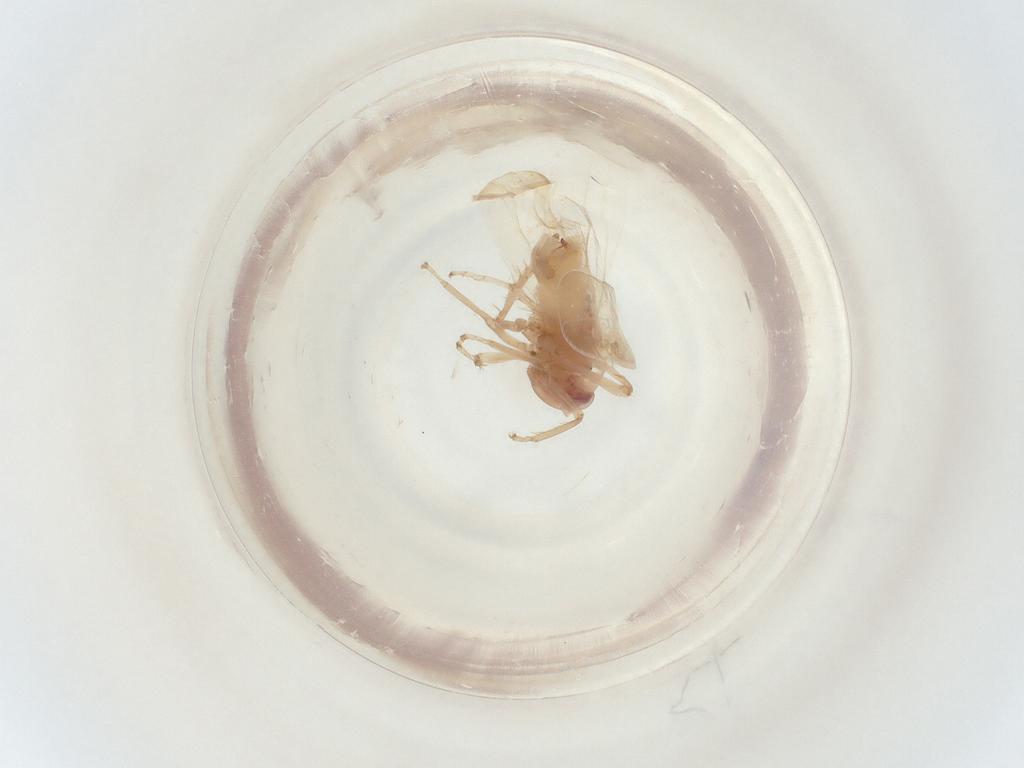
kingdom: Animalia
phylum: Arthropoda
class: Insecta
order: Hemiptera
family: Cicadellidae
